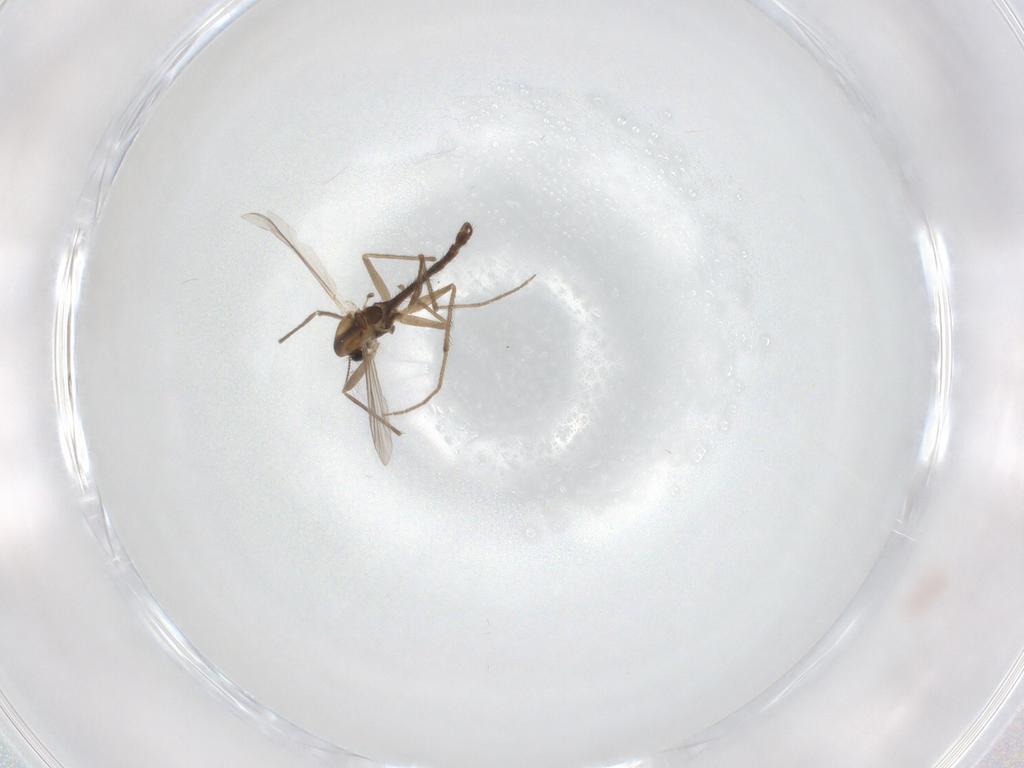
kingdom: Animalia
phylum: Arthropoda
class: Insecta
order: Diptera
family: Chironomidae
